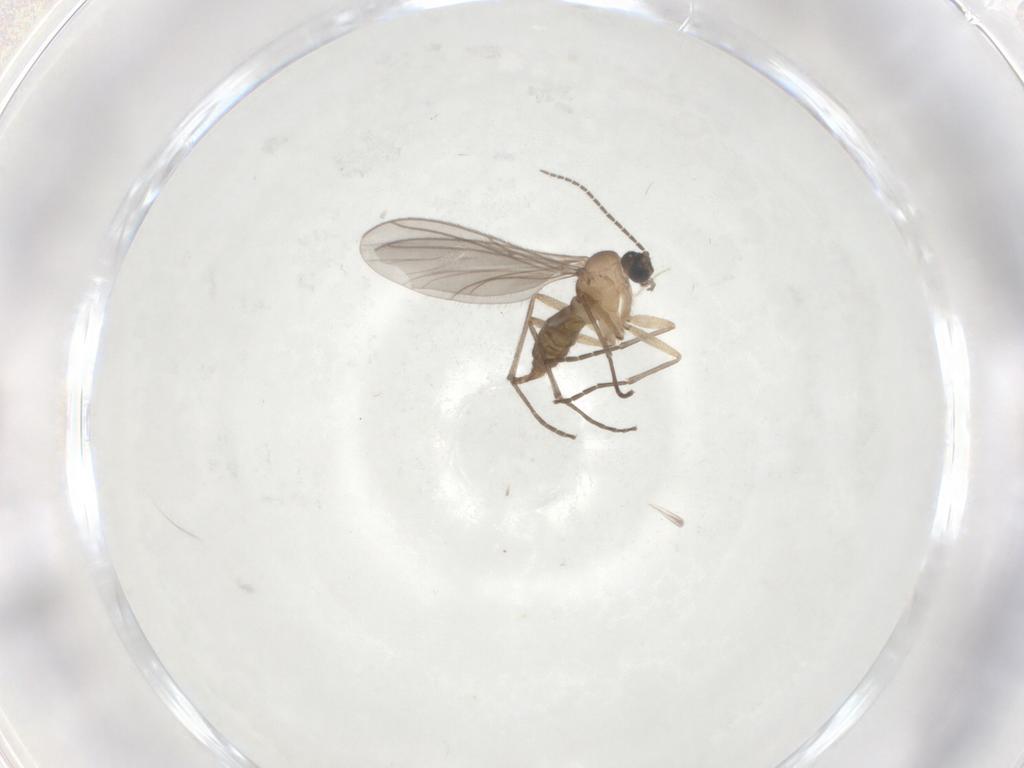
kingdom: Animalia
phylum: Arthropoda
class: Insecta
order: Diptera
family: Sciaridae
